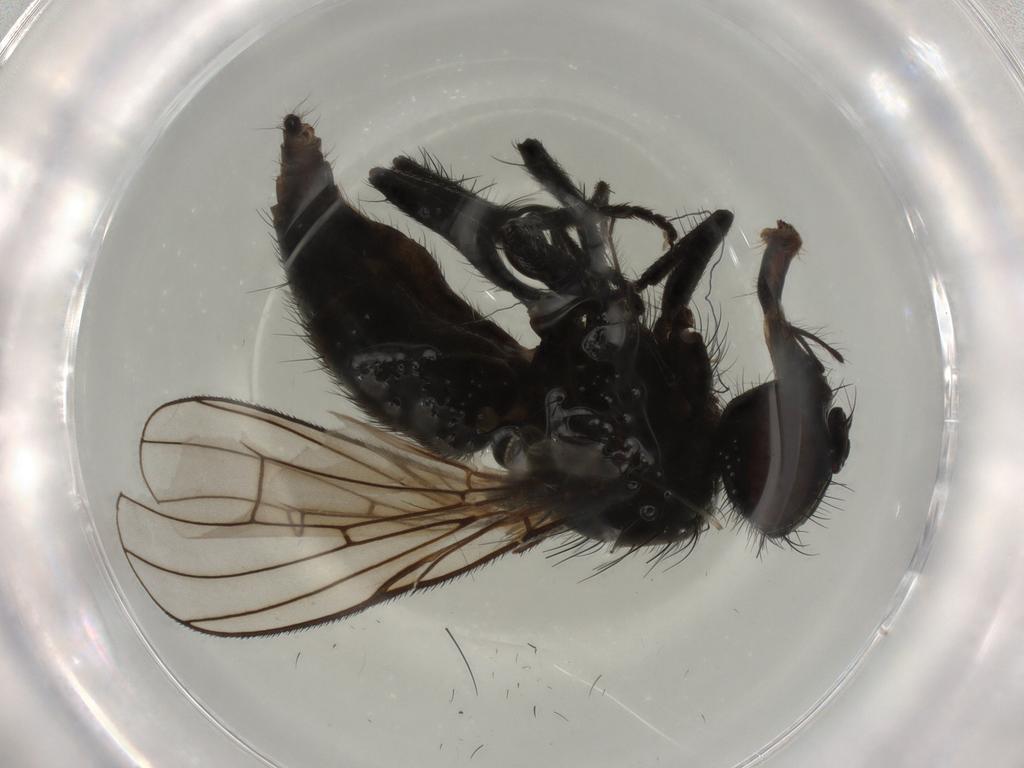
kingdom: Animalia
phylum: Arthropoda
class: Insecta
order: Diptera
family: Muscidae
